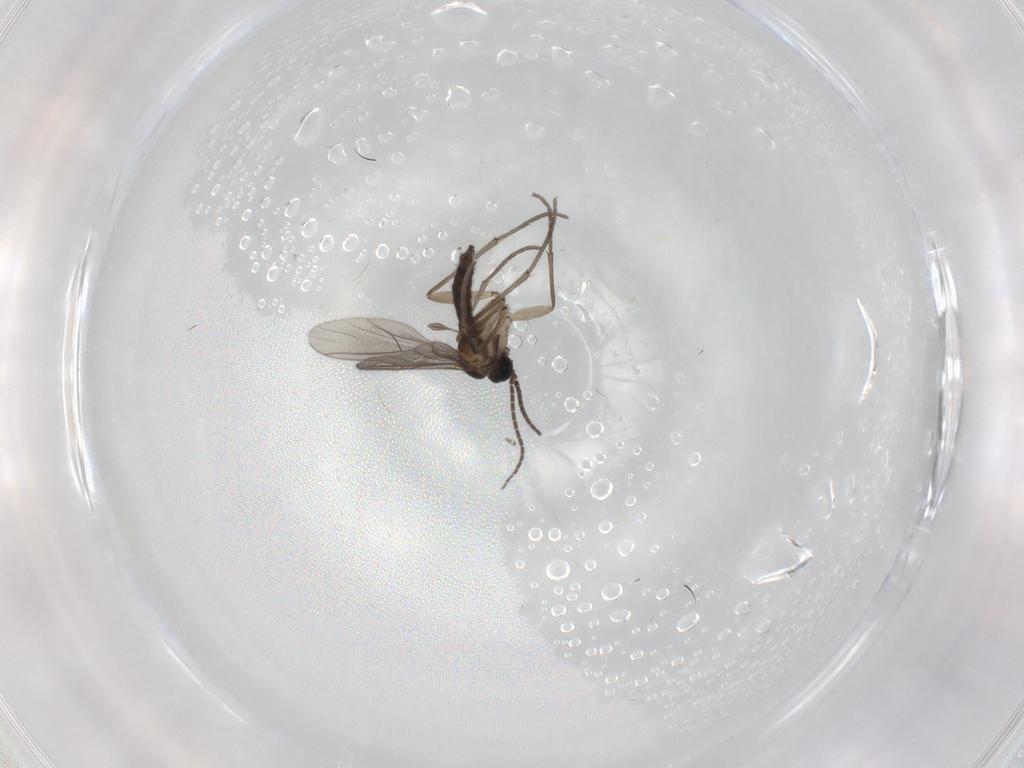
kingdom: Animalia
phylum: Arthropoda
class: Insecta
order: Diptera
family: Sciaridae
